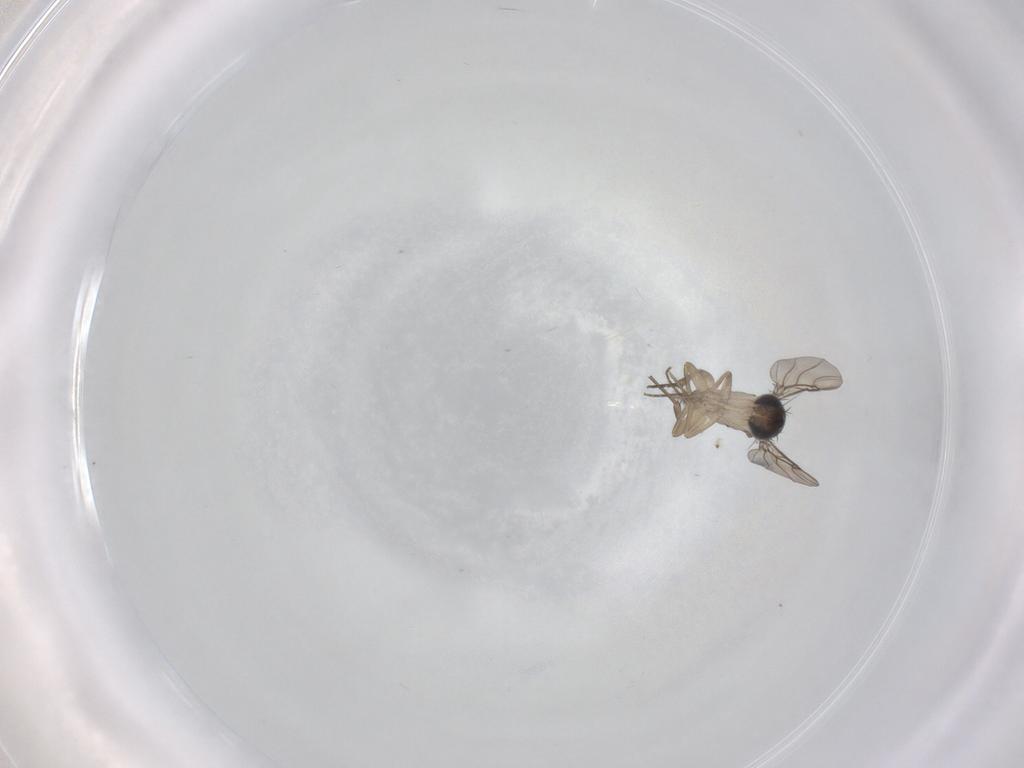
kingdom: Animalia
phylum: Arthropoda
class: Insecta
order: Diptera
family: Phoridae
